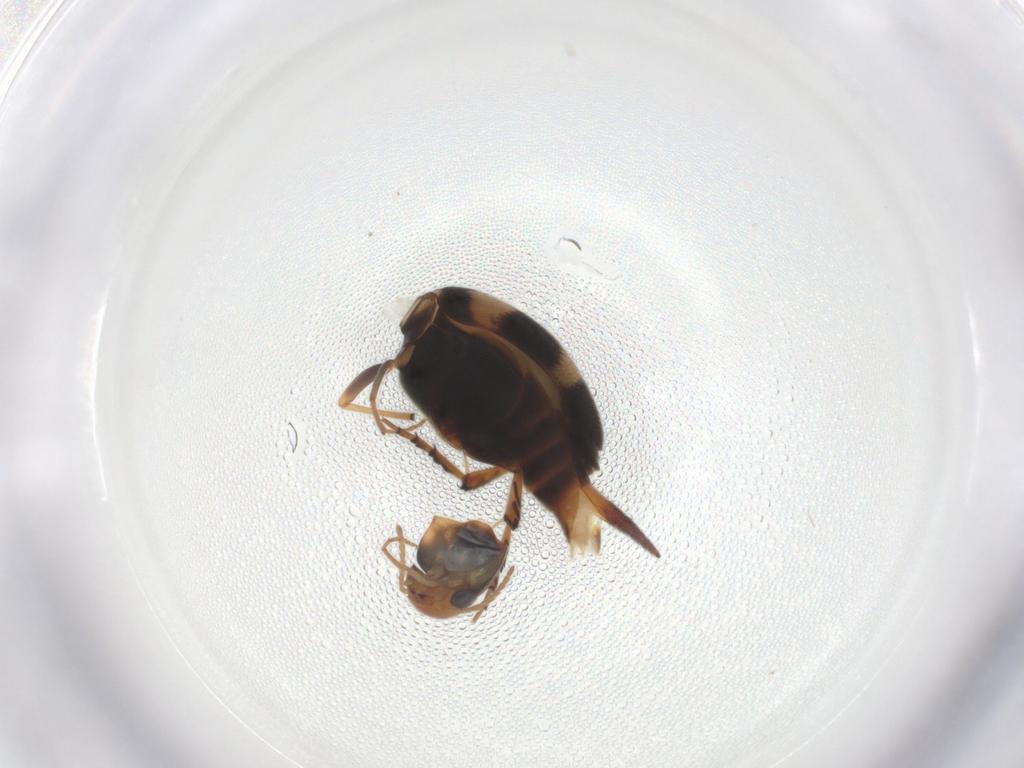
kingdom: Animalia
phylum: Arthropoda
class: Insecta
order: Coleoptera
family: Mordellidae
